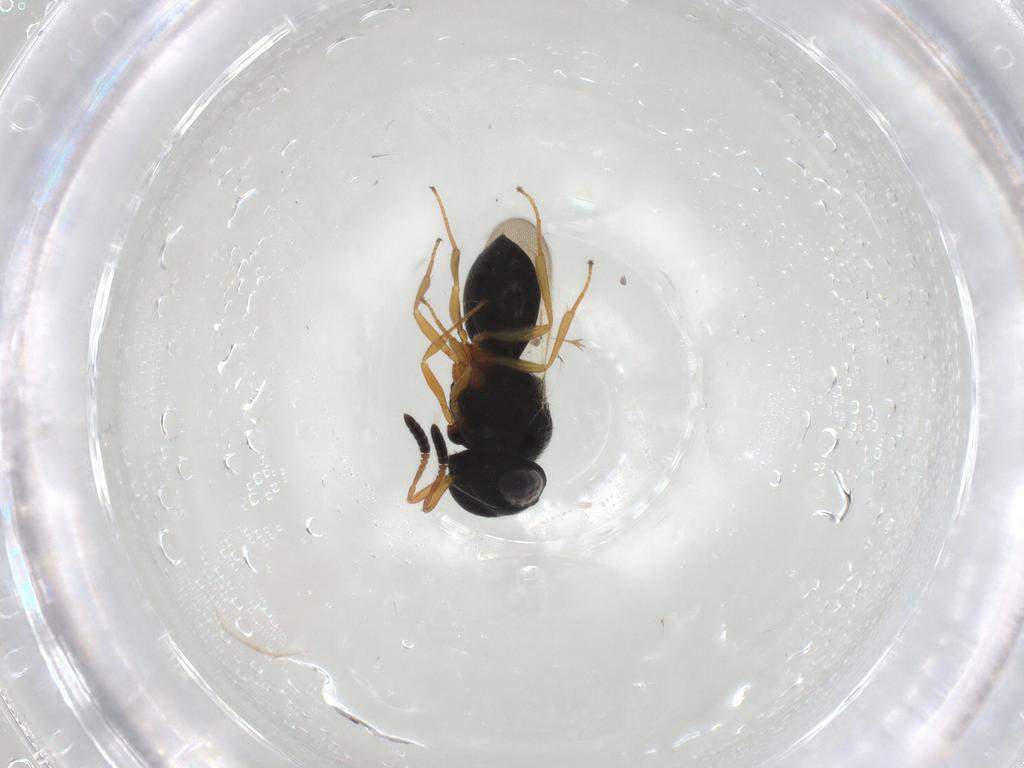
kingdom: Animalia
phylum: Arthropoda
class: Insecta
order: Hymenoptera
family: Scelionidae
